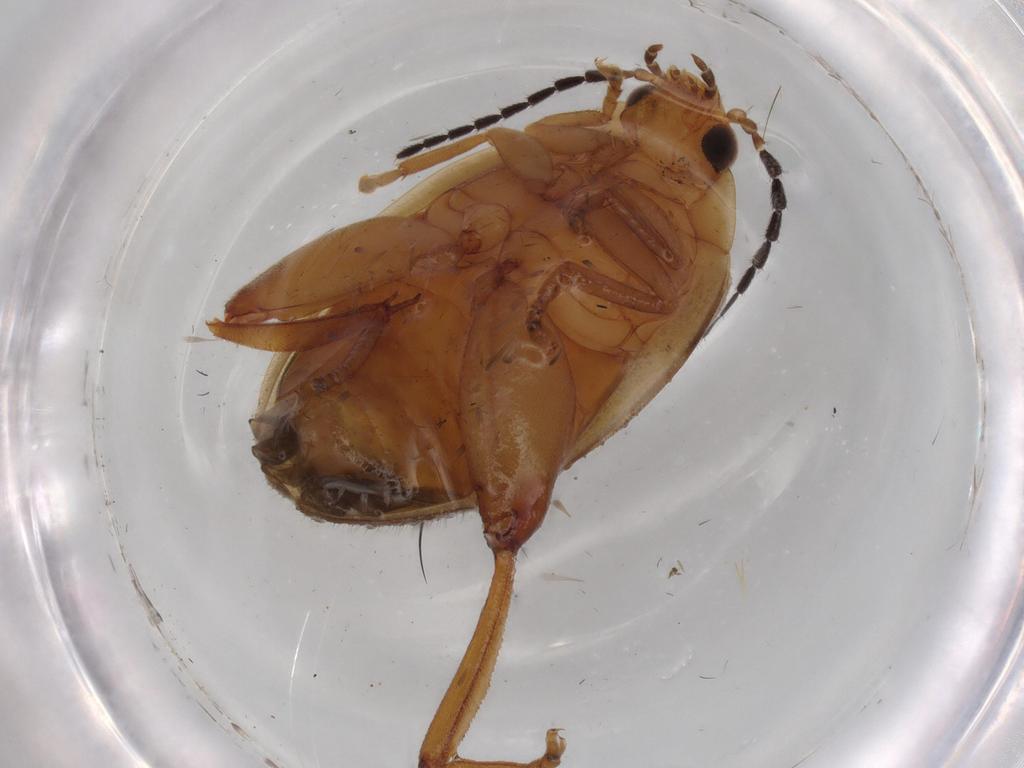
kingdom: Animalia
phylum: Arthropoda
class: Insecta
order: Coleoptera
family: Scirtidae
